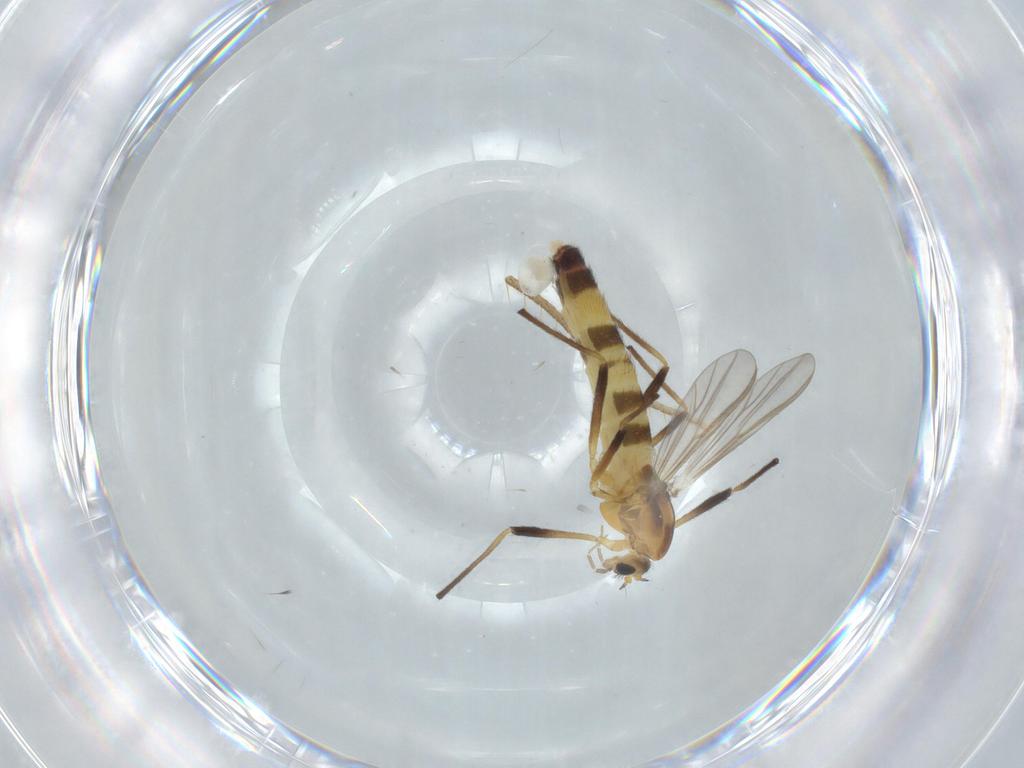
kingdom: Animalia
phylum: Arthropoda
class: Insecta
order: Diptera
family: Chironomidae
